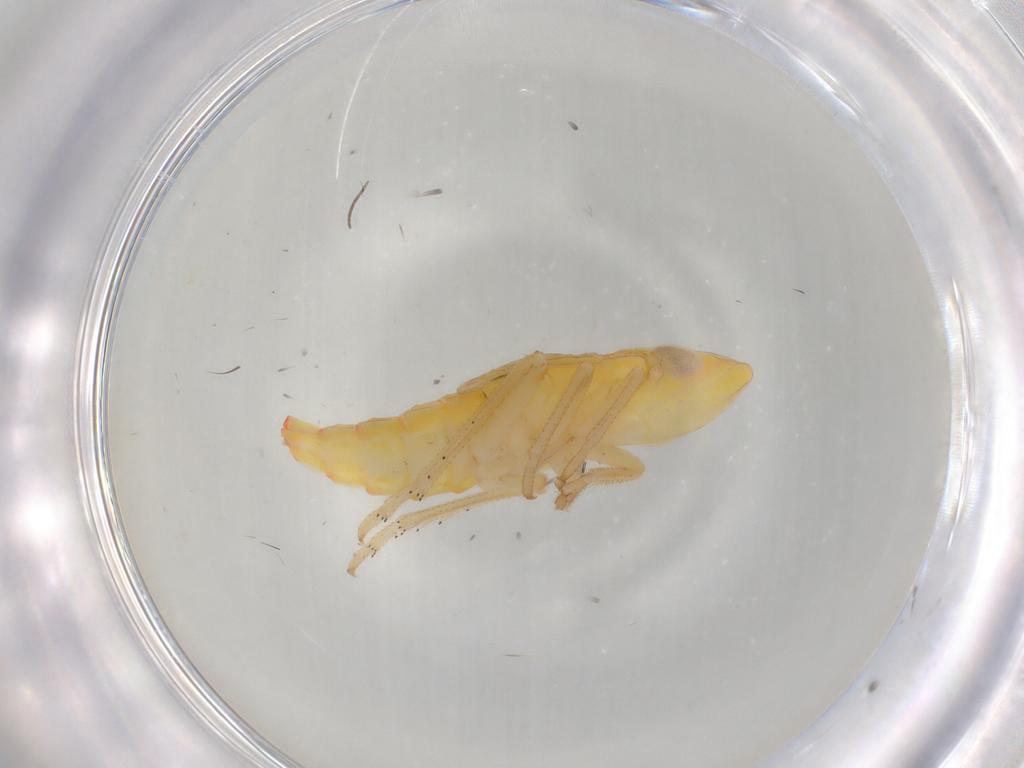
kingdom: Animalia
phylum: Arthropoda
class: Insecta
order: Hemiptera
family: Tropiduchidae
